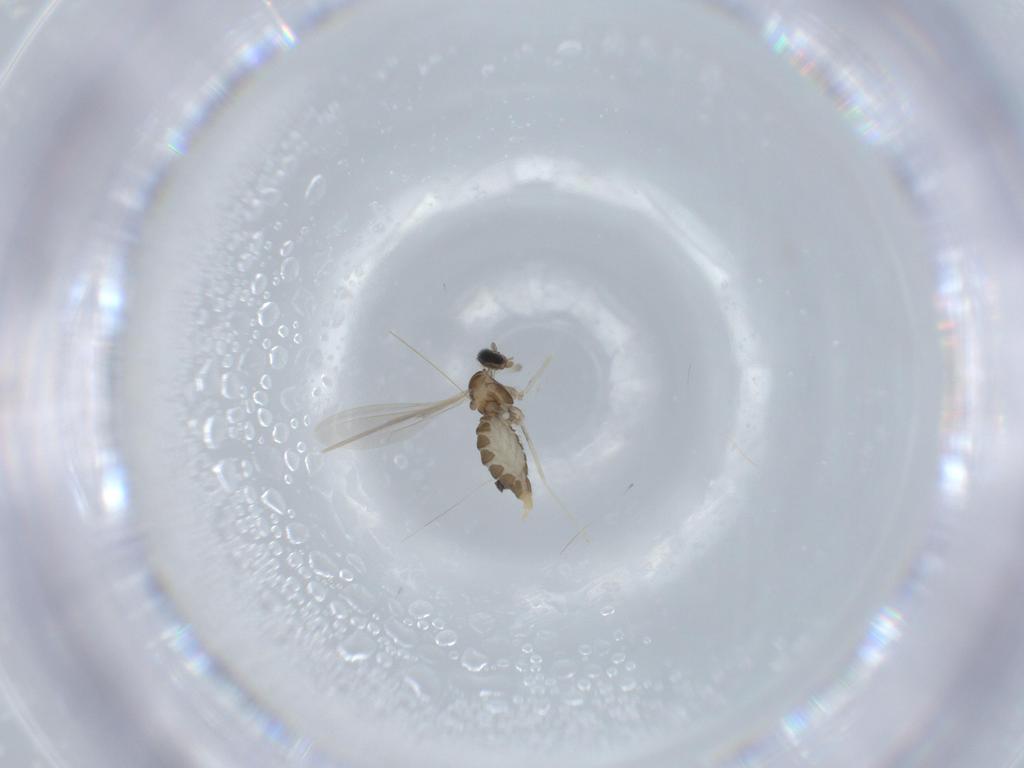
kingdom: Animalia
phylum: Arthropoda
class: Insecta
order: Diptera
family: Cecidomyiidae
